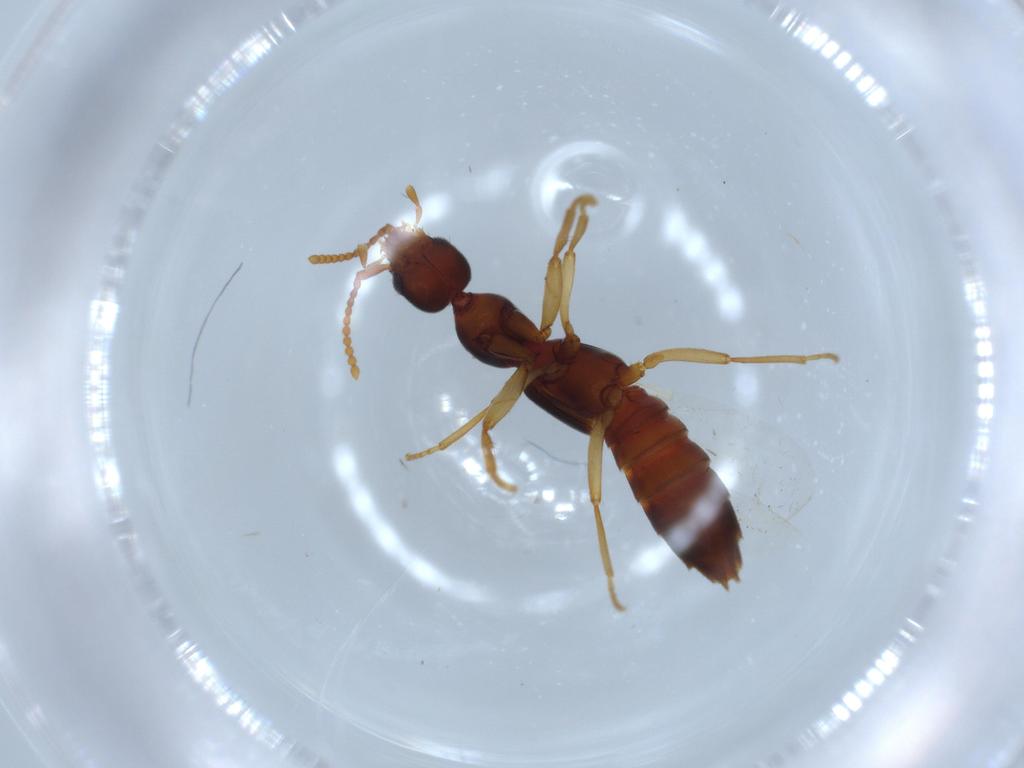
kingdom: Animalia
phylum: Arthropoda
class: Insecta
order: Coleoptera
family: Staphylinidae
